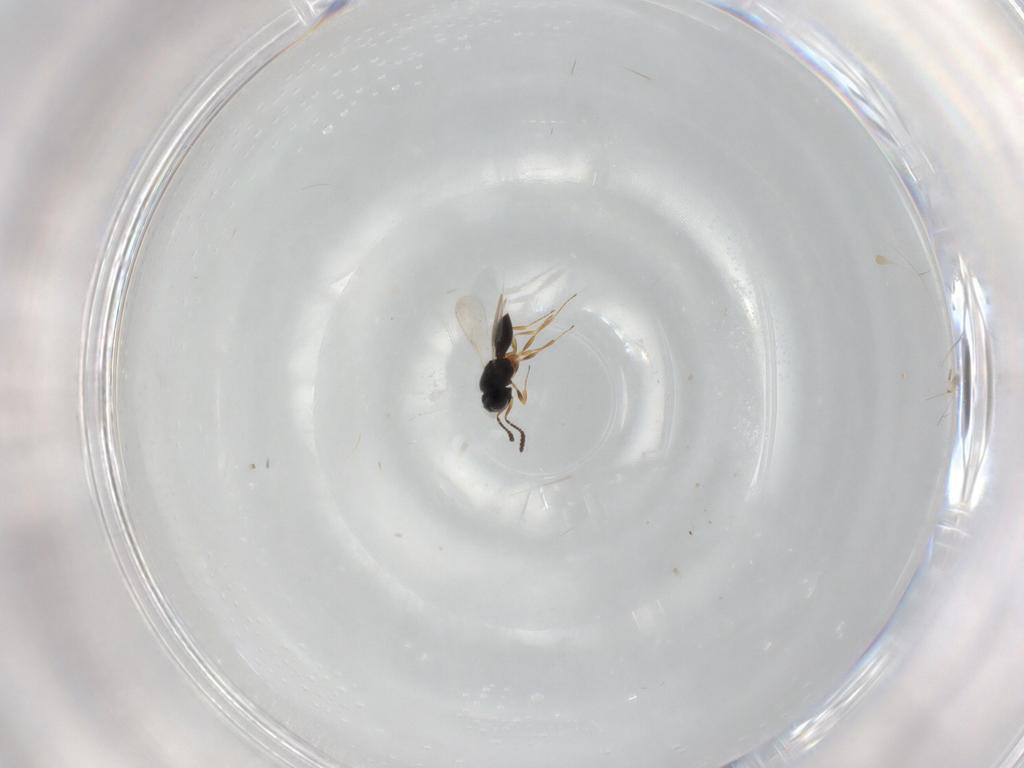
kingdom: Animalia
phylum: Arthropoda
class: Insecta
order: Hymenoptera
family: Scelionidae
